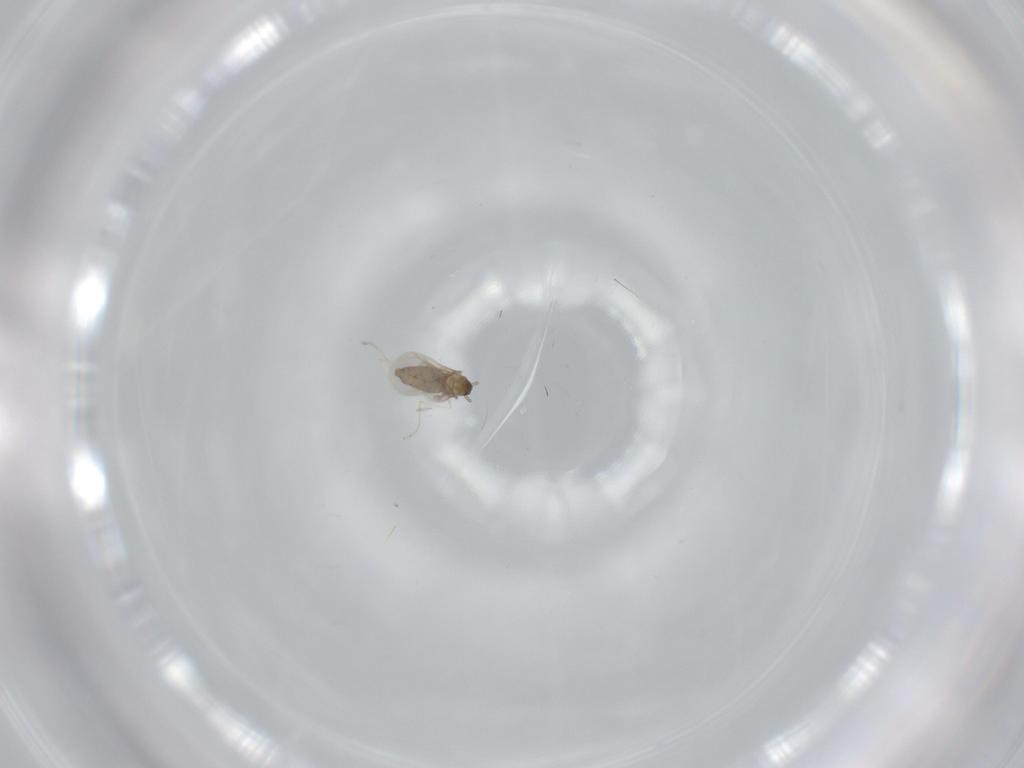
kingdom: Animalia
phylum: Arthropoda
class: Insecta
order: Diptera
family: Cecidomyiidae
